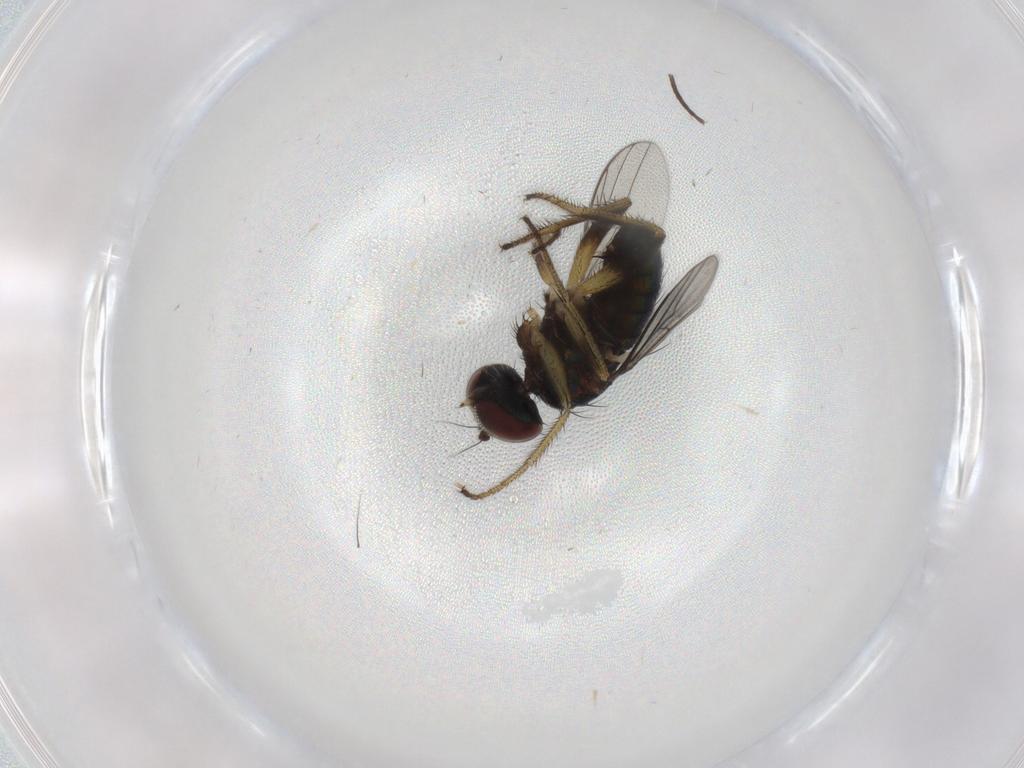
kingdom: Animalia
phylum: Arthropoda
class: Insecta
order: Diptera
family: Dolichopodidae
